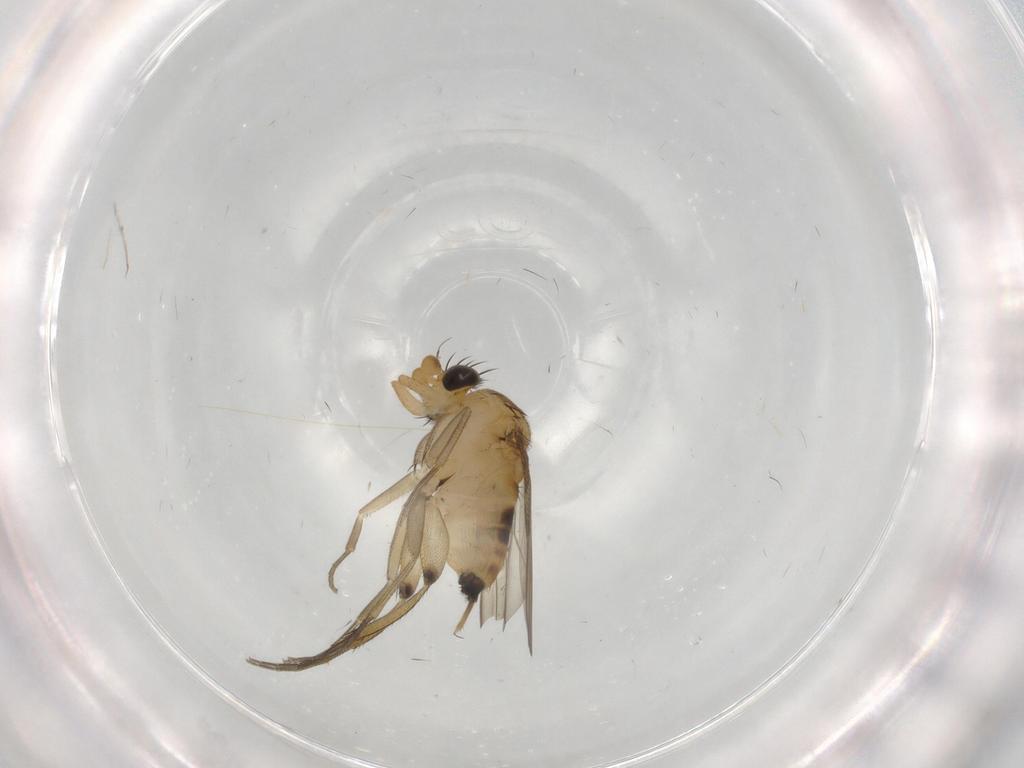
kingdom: Animalia
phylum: Arthropoda
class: Insecta
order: Diptera
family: Phoridae
